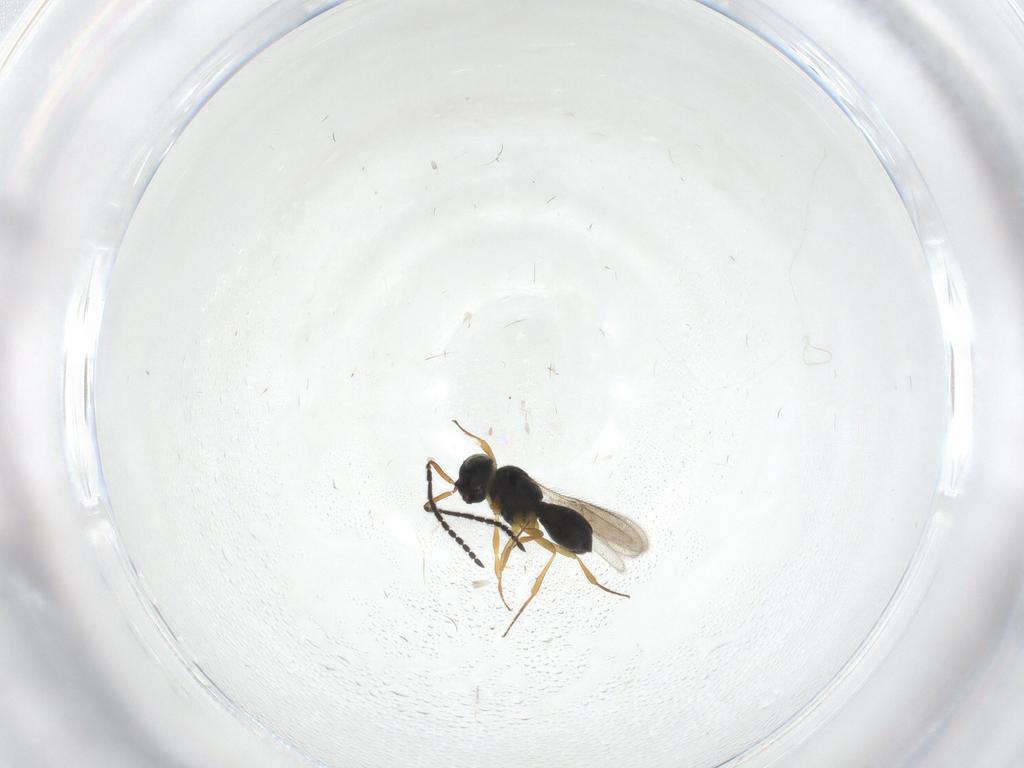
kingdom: Animalia
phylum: Arthropoda
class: Insecta
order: Hymenoptera
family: Scelionidae
